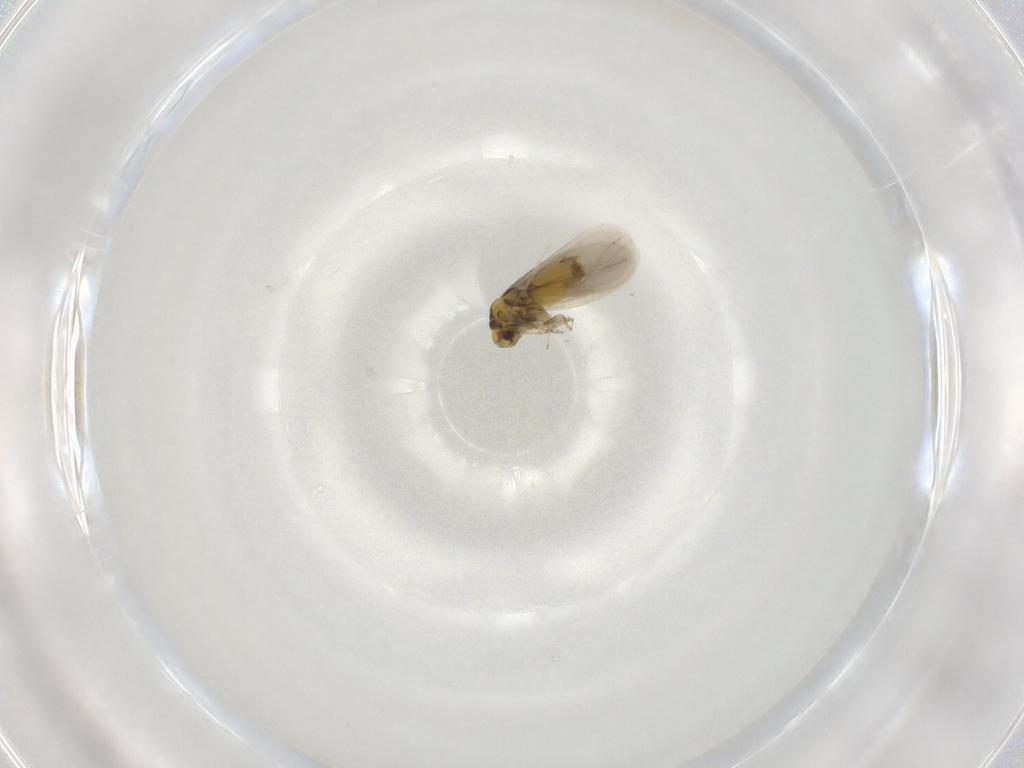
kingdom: Animalia
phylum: Arthropoda
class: Insecta
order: Hemiptera
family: Aleyrodidae
